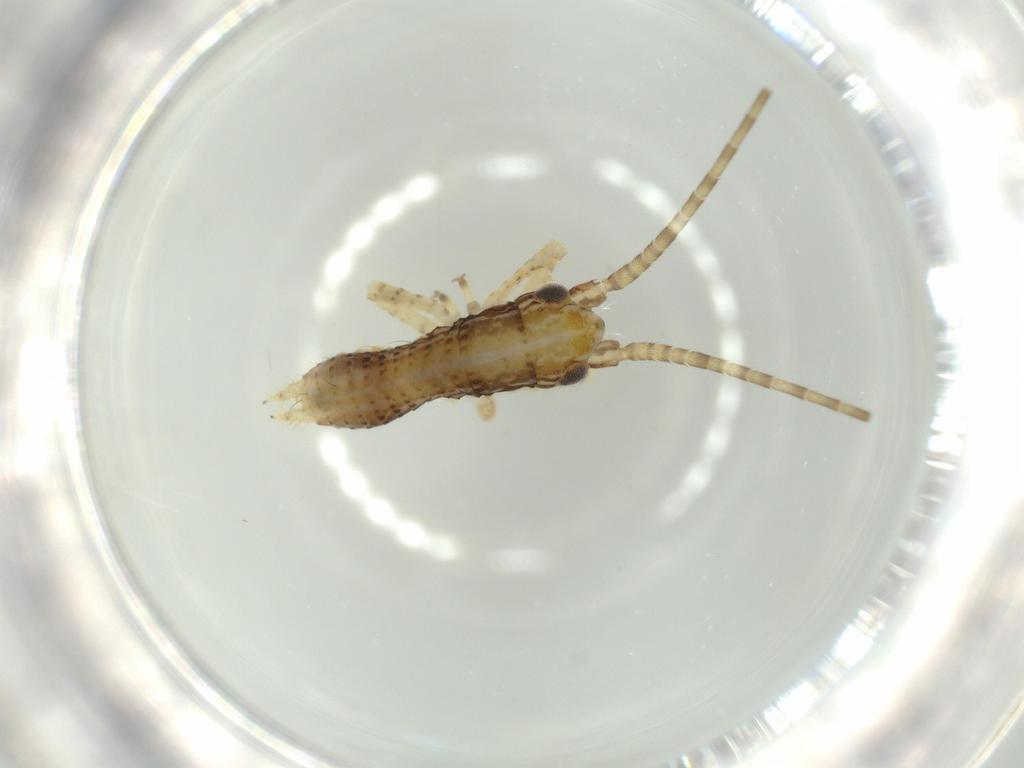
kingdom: Animalia
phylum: Arthropoda
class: Insecta
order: Orthoptera
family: Gryllidae
